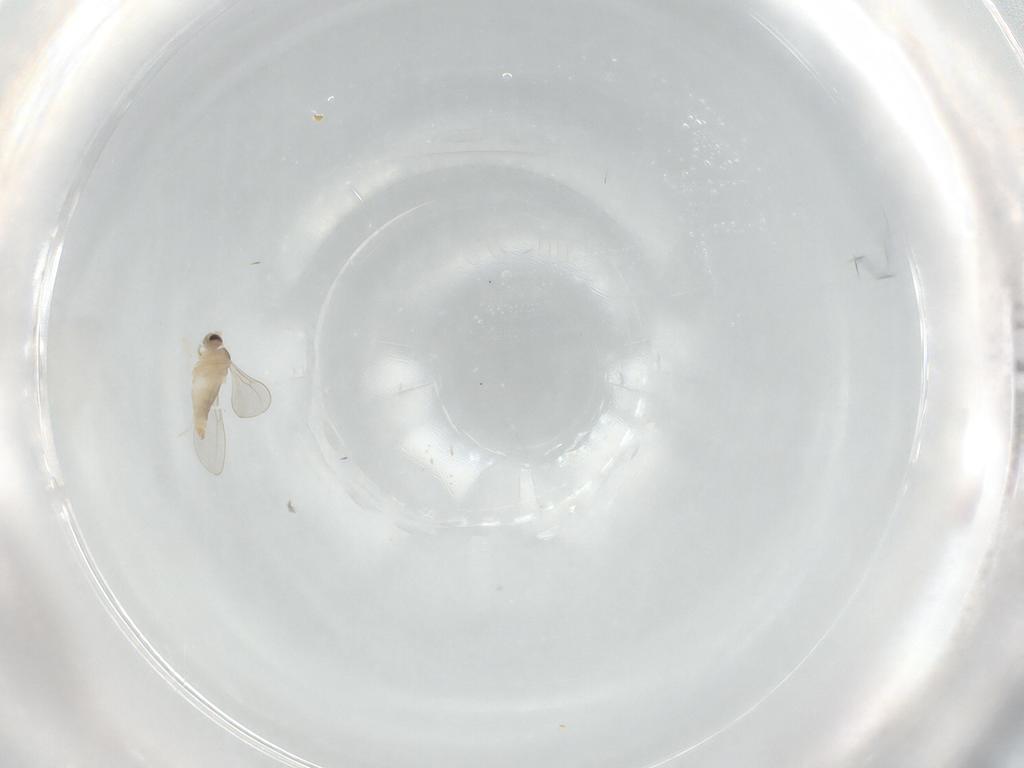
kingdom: Animalia
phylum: Arthropoda
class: Insecta
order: Diptera
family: Cecidomyiidae
